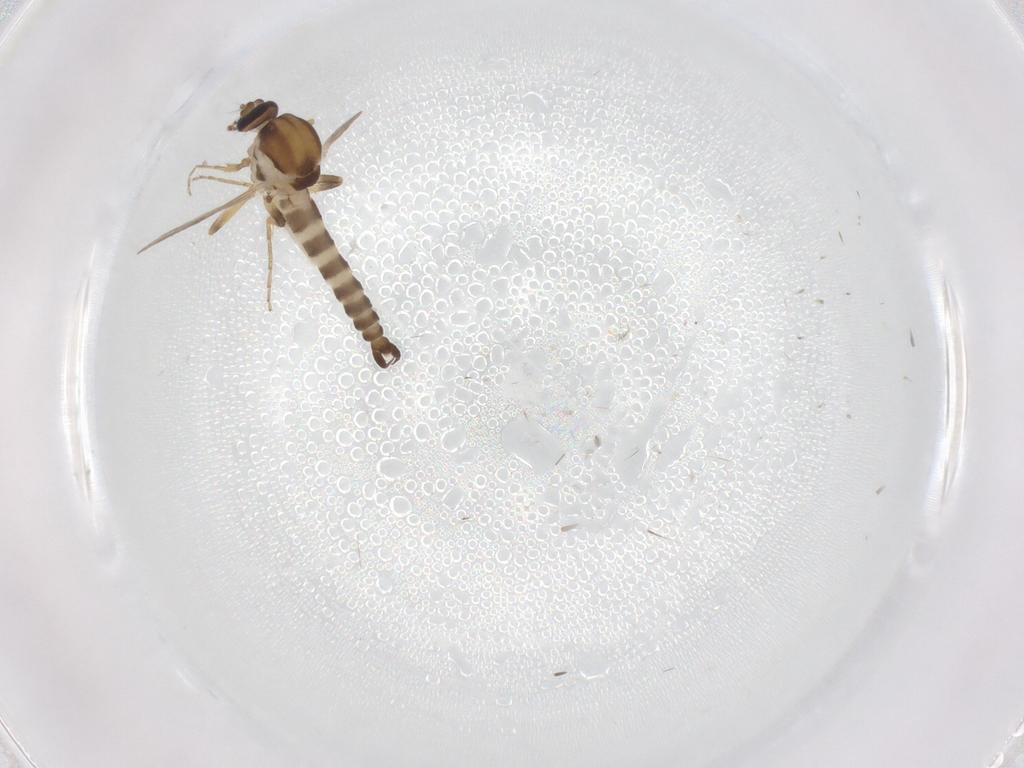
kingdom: Animalia
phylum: Arthropoda
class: Insecta
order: Diptera
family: Ceratopogonidae
